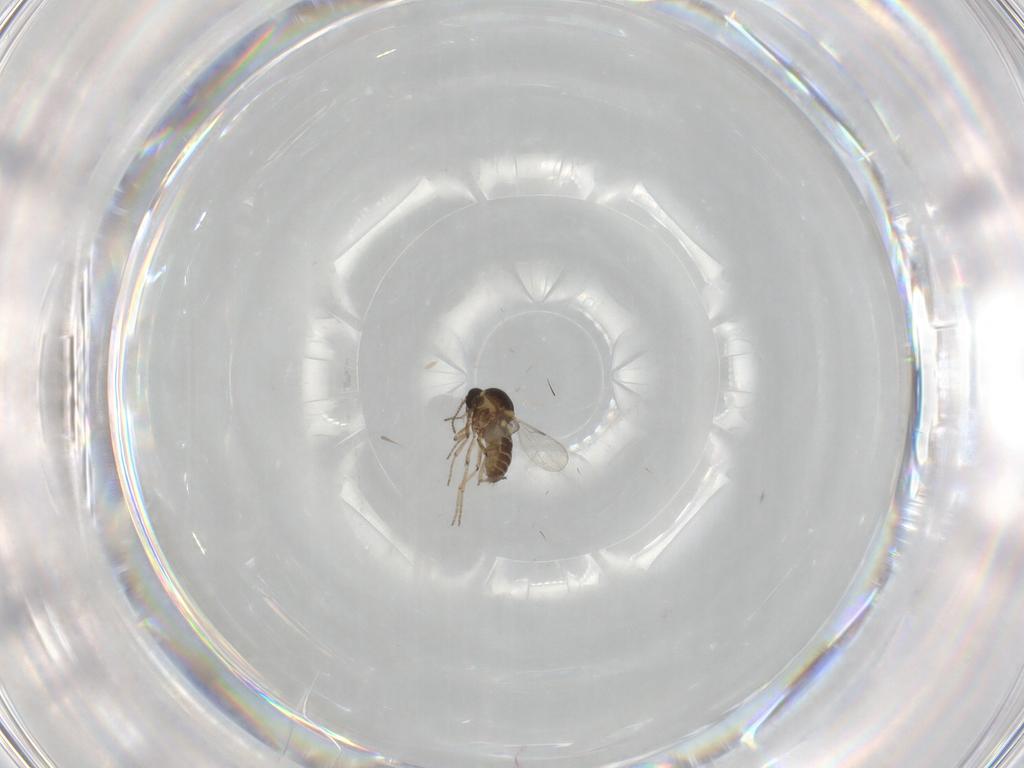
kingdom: Animalia
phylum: Arthropoda
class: Insecta
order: Diptera
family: Ceratopogonidae
